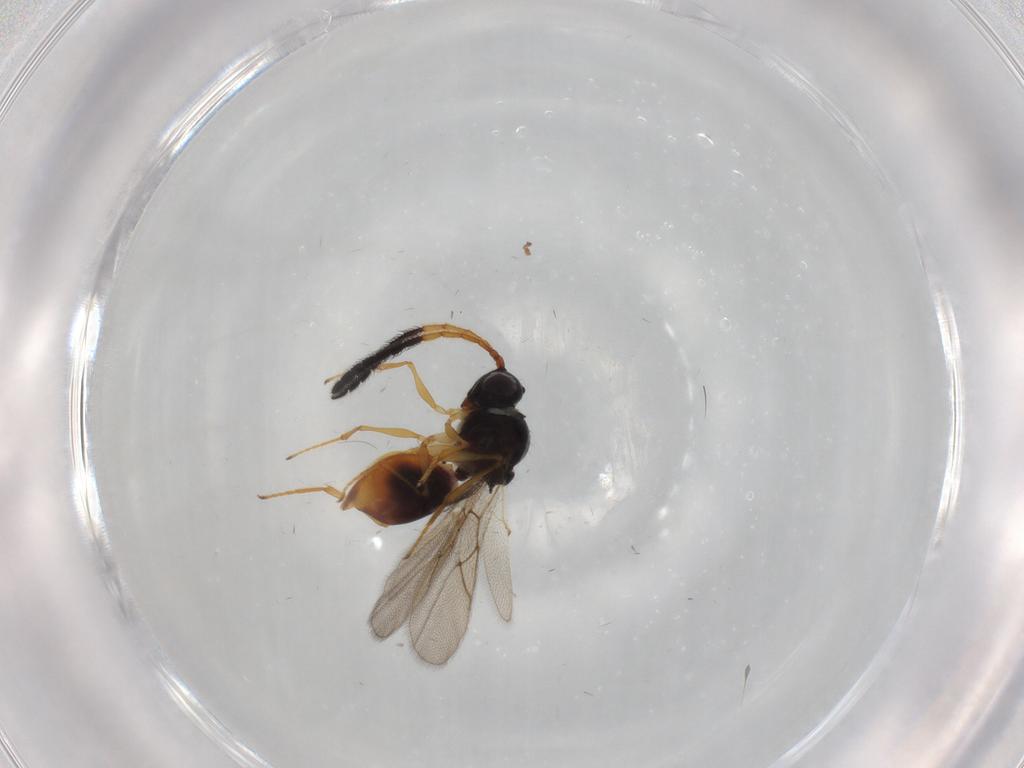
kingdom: Animalia
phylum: Arthropoda
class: Insecta
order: Hymenoptera
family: Figitidae
